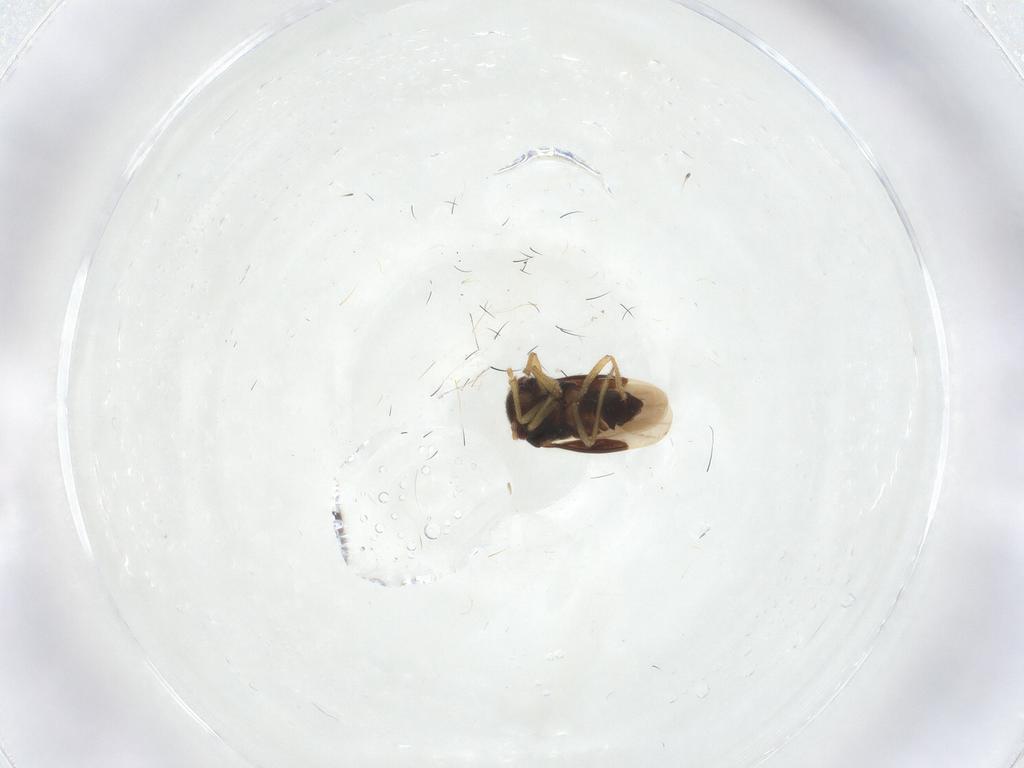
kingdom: Animalia
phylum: Arthropoda
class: Insecta
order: Hemiptera
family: Schizopteridae
